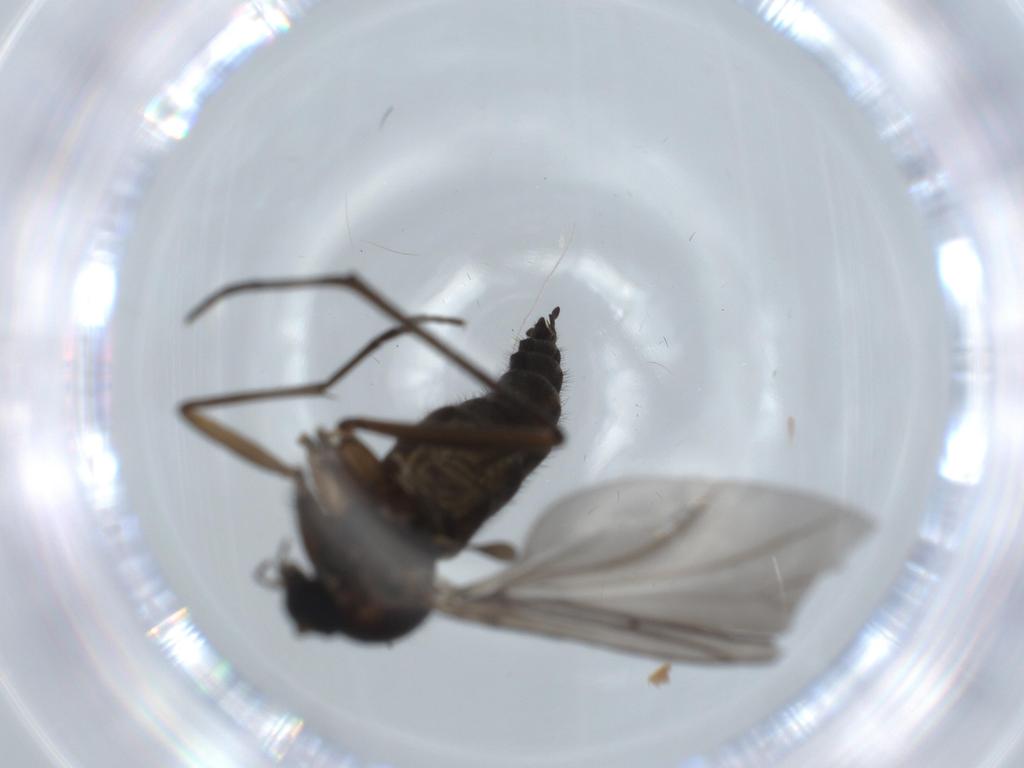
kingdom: Animalia
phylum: Arthropoda
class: Insecta
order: Diptera
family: Sciaridae
